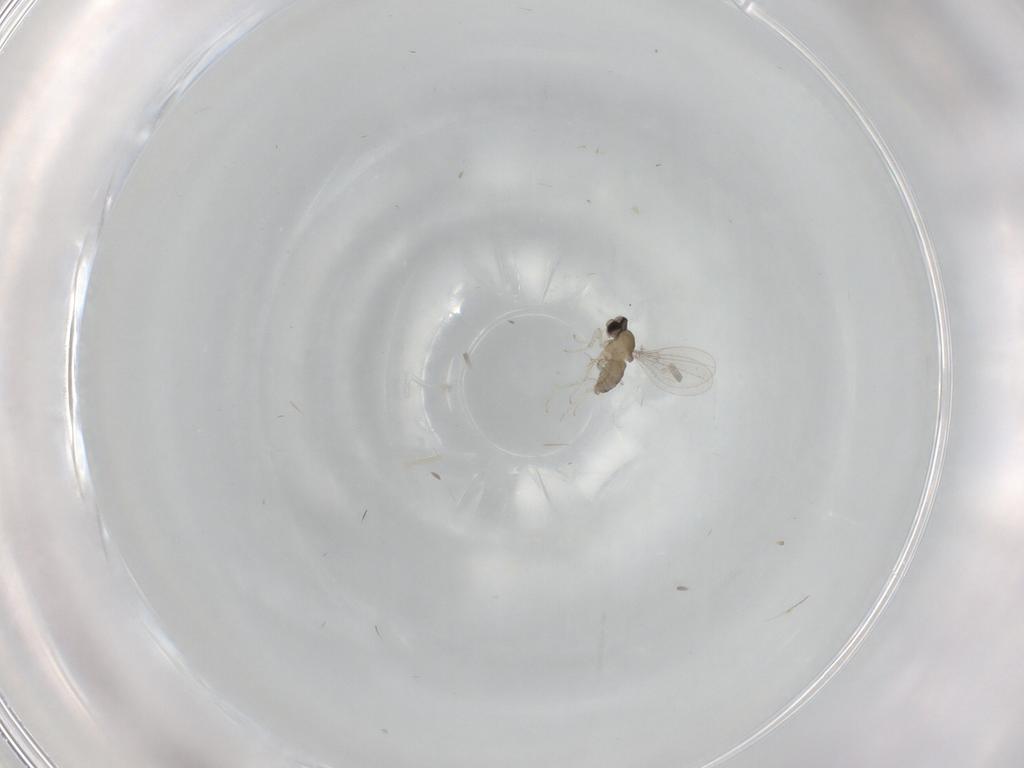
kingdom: Animalia
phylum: Arthropoda
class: Insecta
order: Diptera
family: Cecidomyiidae
